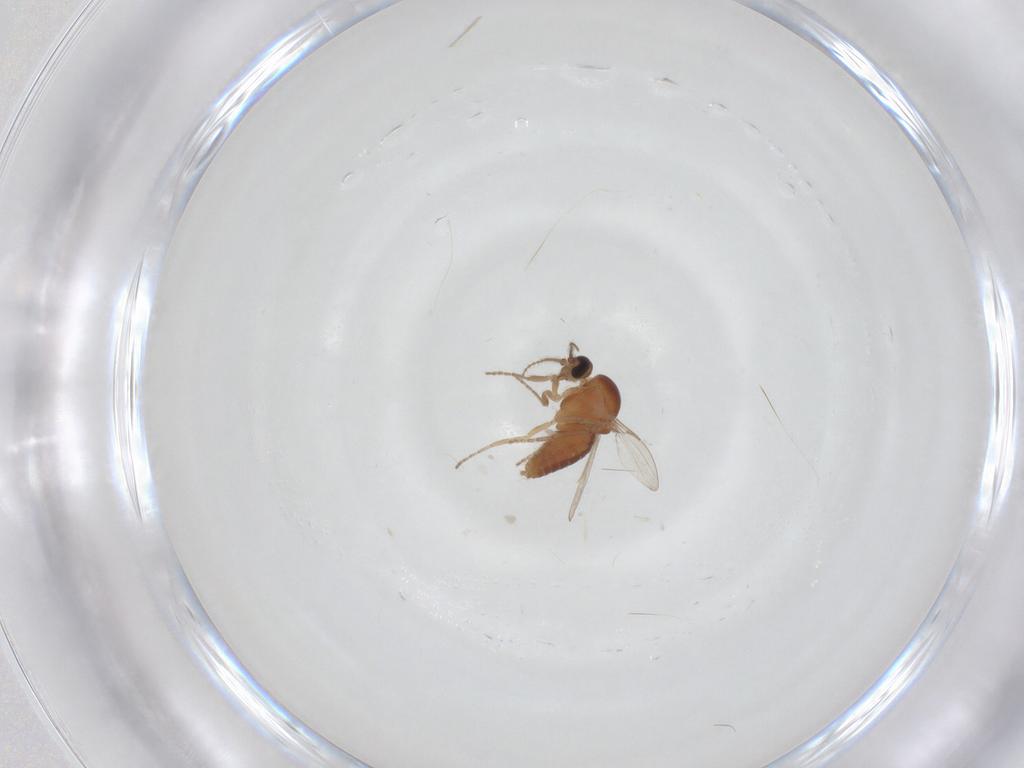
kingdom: Animalia
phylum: Arthropoda
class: Insecta
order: Diptera
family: Ceratopogonidae
